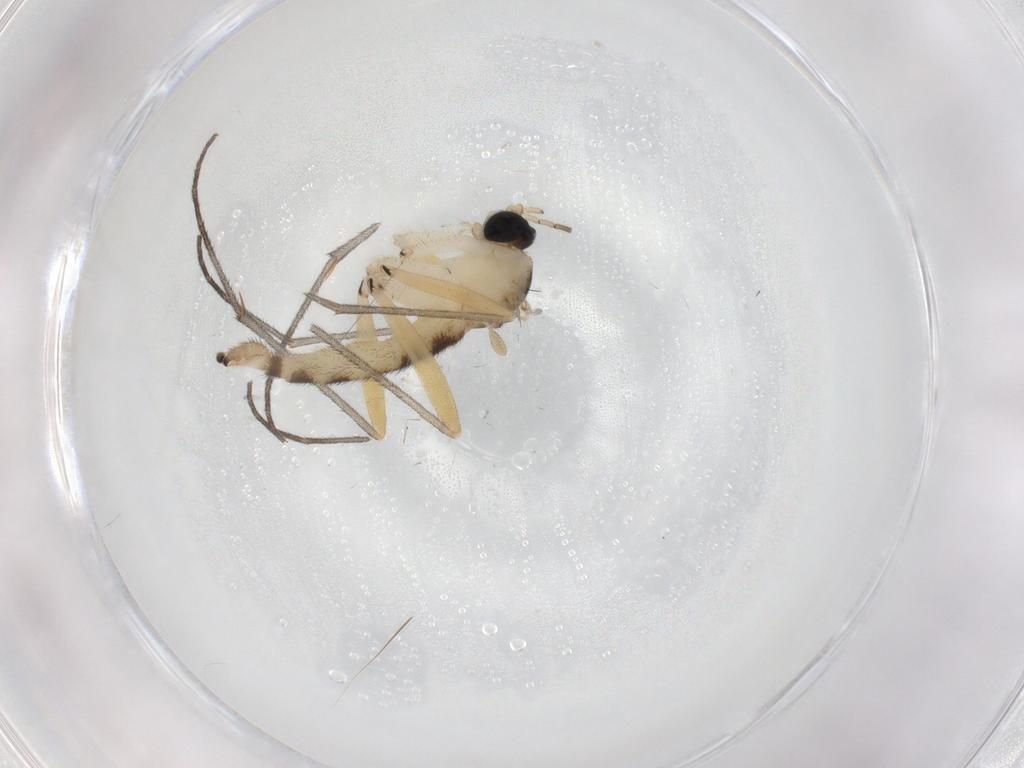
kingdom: Animalia
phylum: Arthropoda
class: Insecta
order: Diptera
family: Sciaridae
